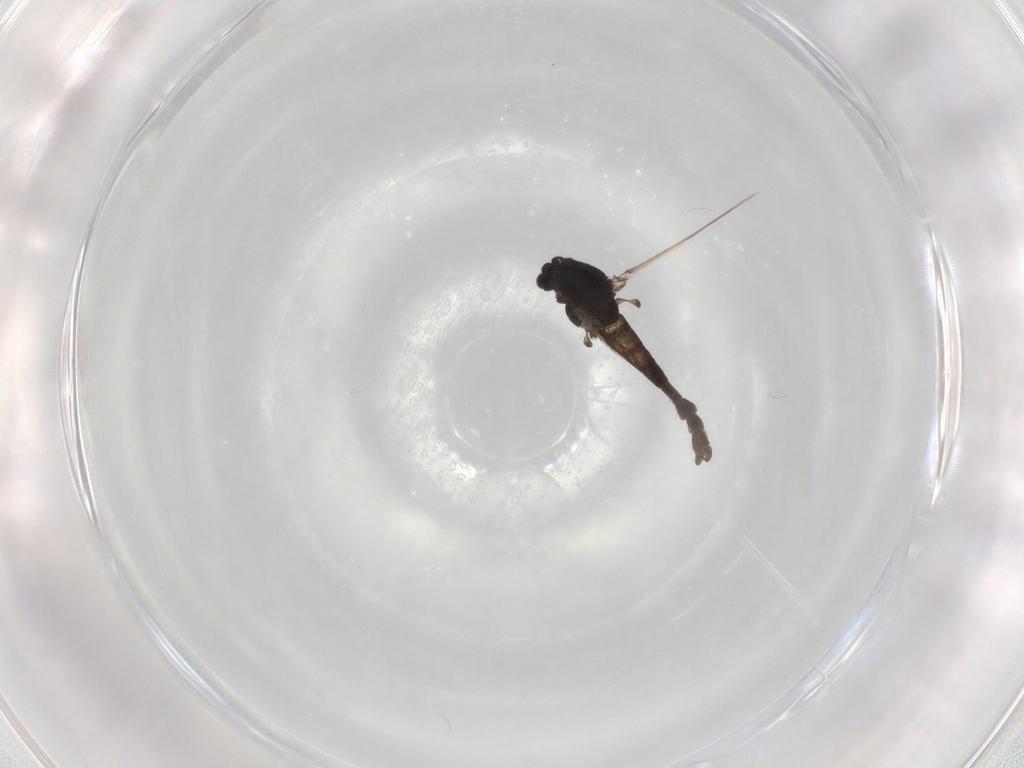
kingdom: Animalia
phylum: Arthropoda
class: Insecta
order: Diptera
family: Chironomidae
